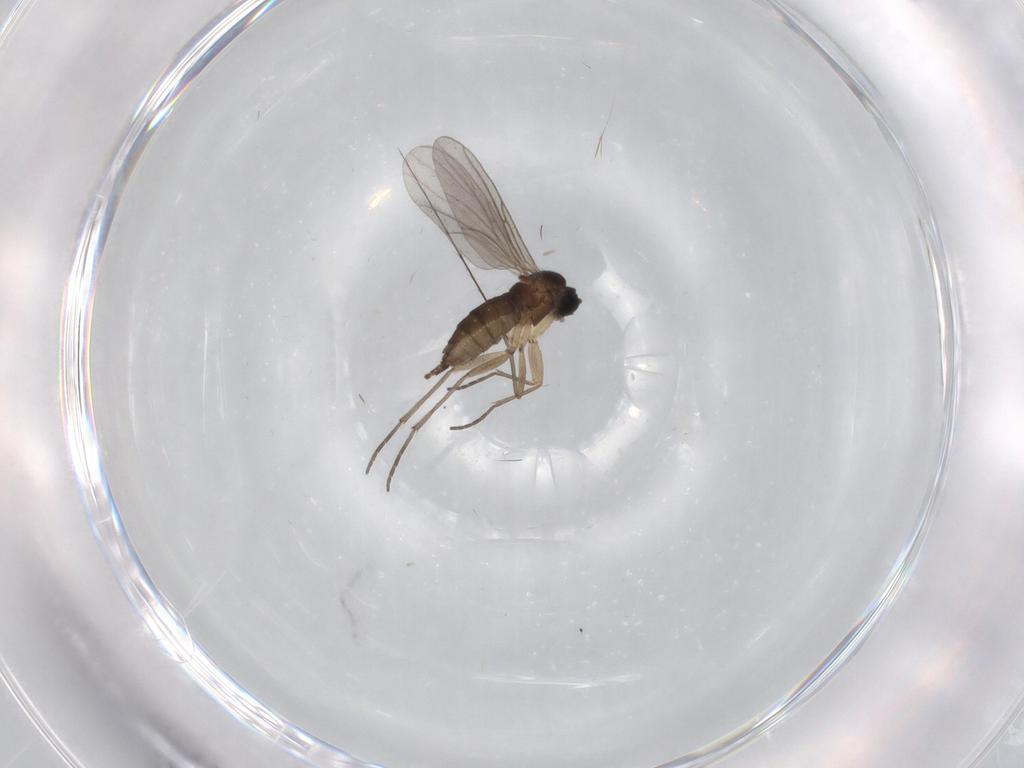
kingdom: Animalia
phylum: Arthropoda
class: Insecta
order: Diptera
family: Sciaridae
